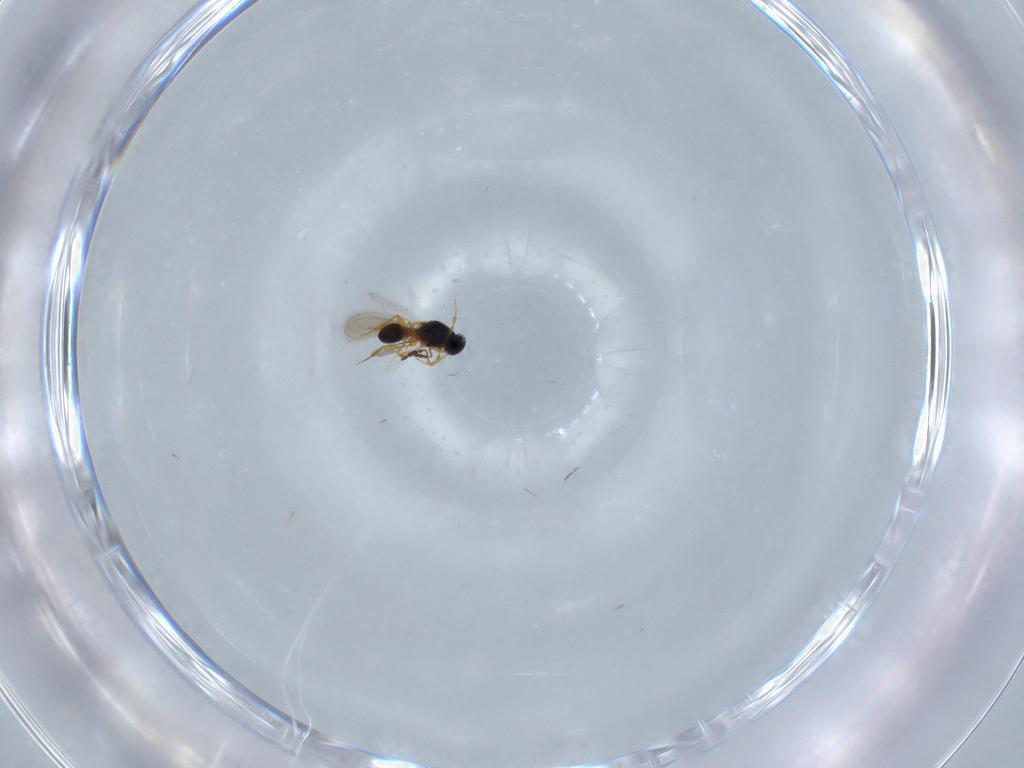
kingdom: Animalia
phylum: Arthropoda
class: Insecta
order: Hymenoptera
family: Platygastridae
